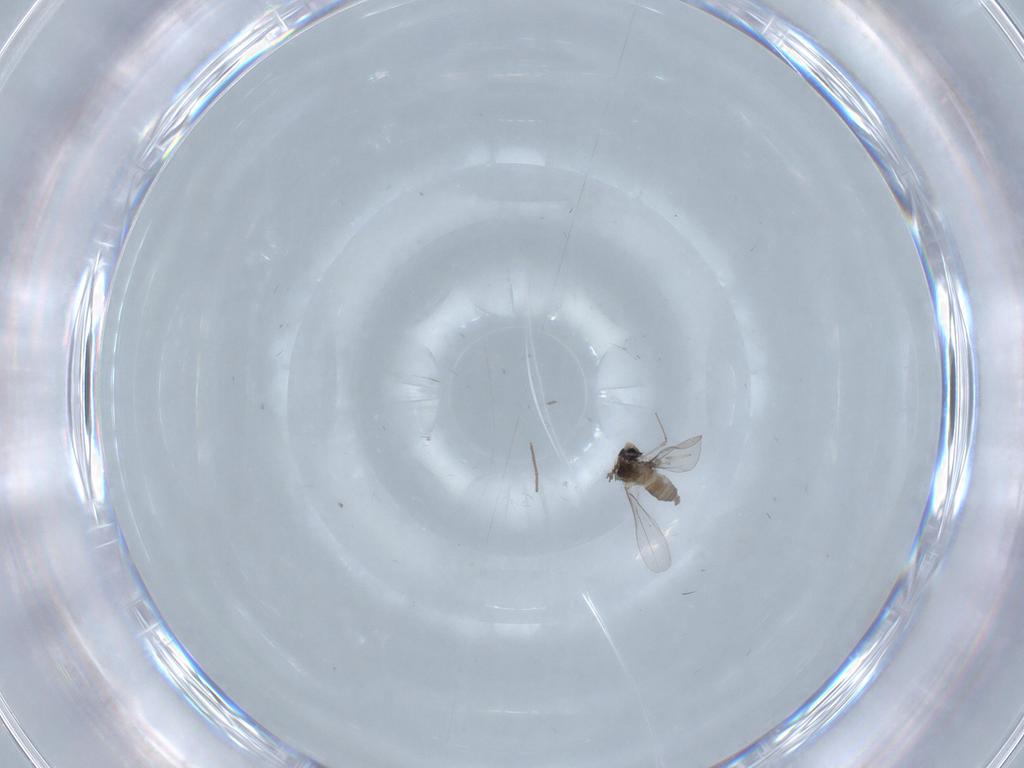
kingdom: Animalia
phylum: Arthropoda
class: Insecta
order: Diptera
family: Cecidomyiidae
